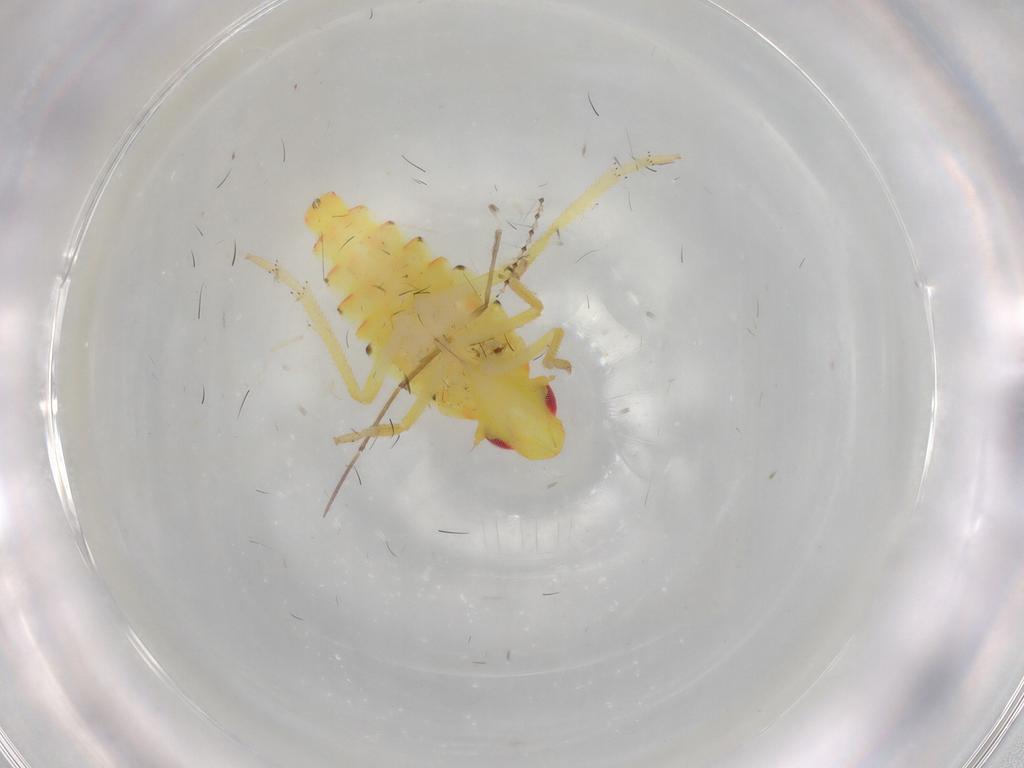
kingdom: Animalia
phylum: Arthropoda
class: Insecta
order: Hemiptera
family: Tropiduchidae
